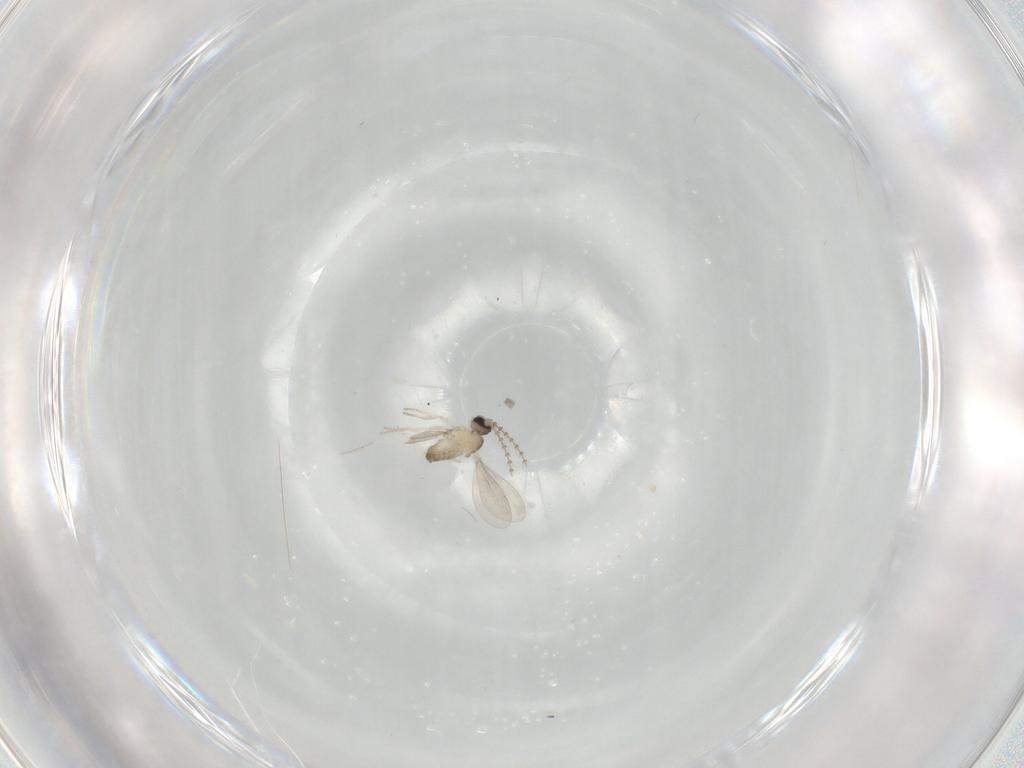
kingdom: Animalia
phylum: Arthropoda
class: Insecta
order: Diptera
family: Cecidomyiidae
